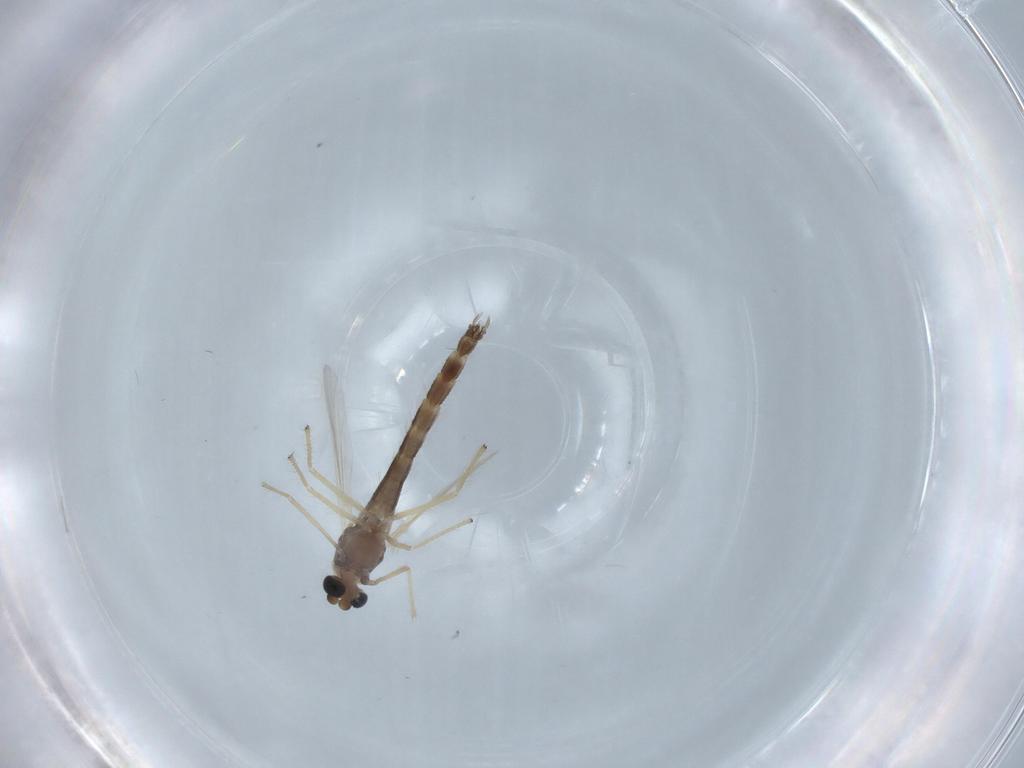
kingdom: Animalia
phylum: Arthropoda
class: Insecta
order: Diptera
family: Chironomidae
